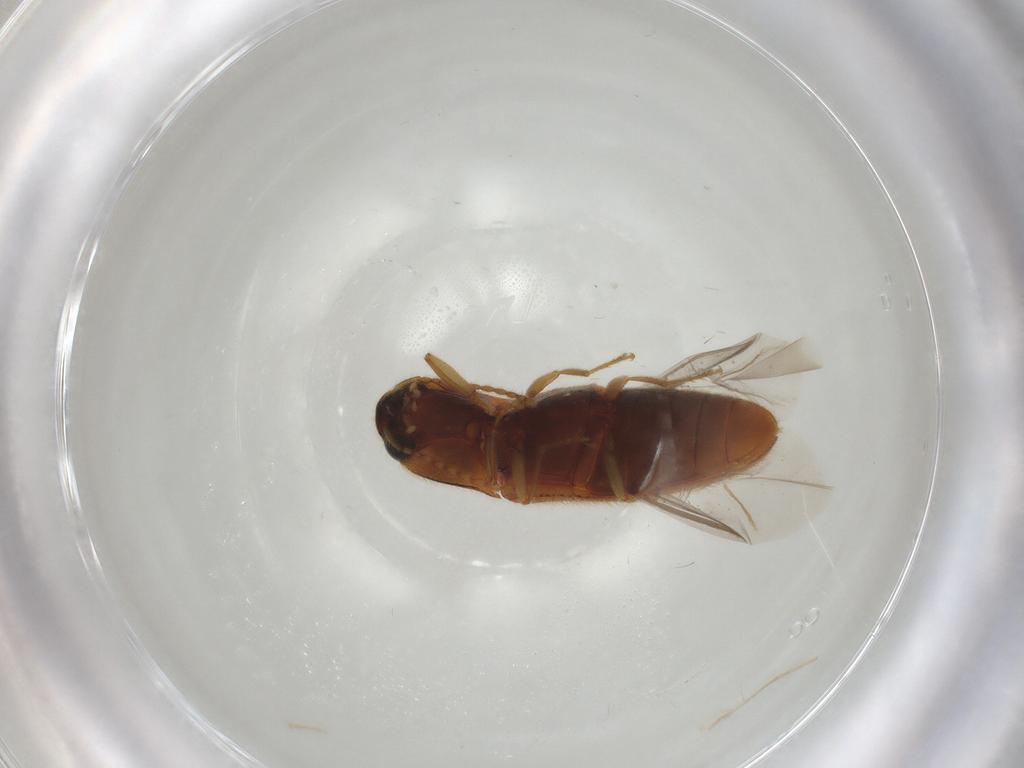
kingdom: Animalia
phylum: Arthropoda
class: Insecta
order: Coleoptera
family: Elateridae
